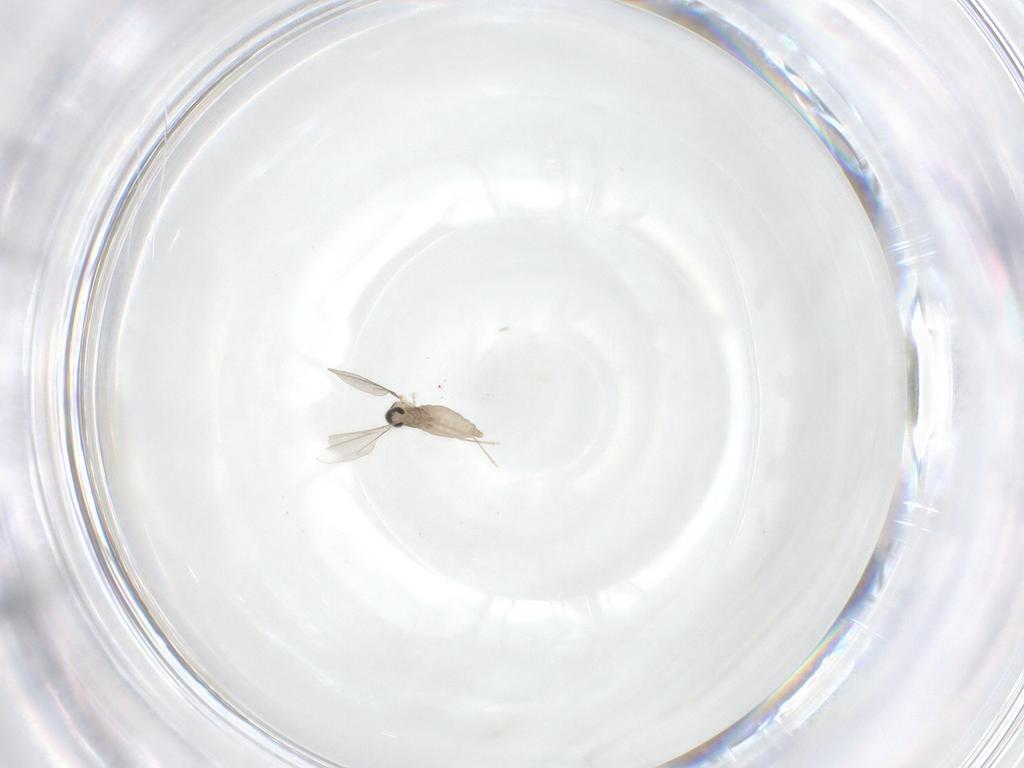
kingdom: Animalia
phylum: Arthropoda
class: Insecta
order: Diptera
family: Cecidomyiidae
